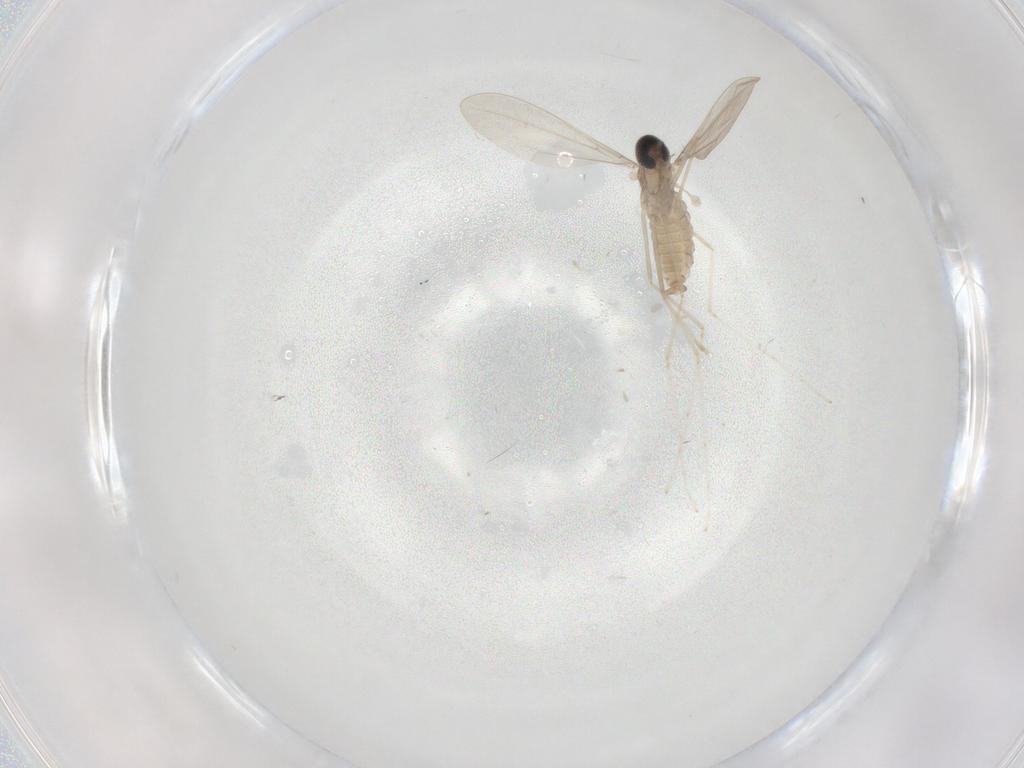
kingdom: Animalia
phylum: Arthropoda
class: Insecta
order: Diptera
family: Cecidomyiidae
